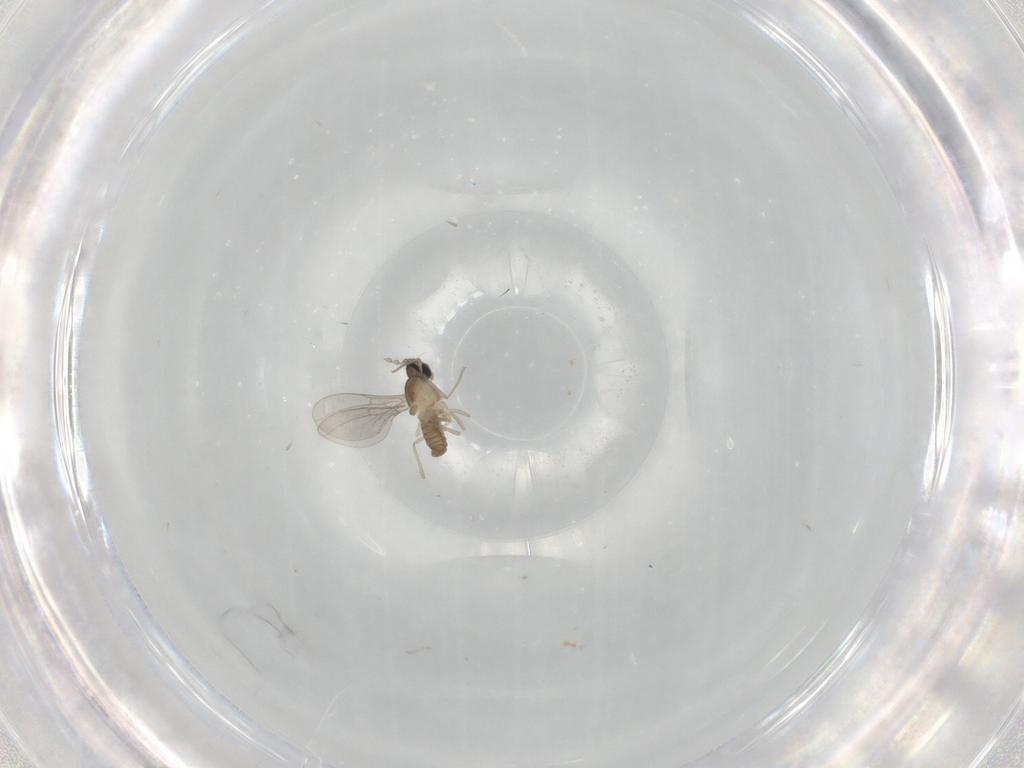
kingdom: Animalia
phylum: Arthropoda
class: Insecta
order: Diptera
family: Cecidomyiidae
